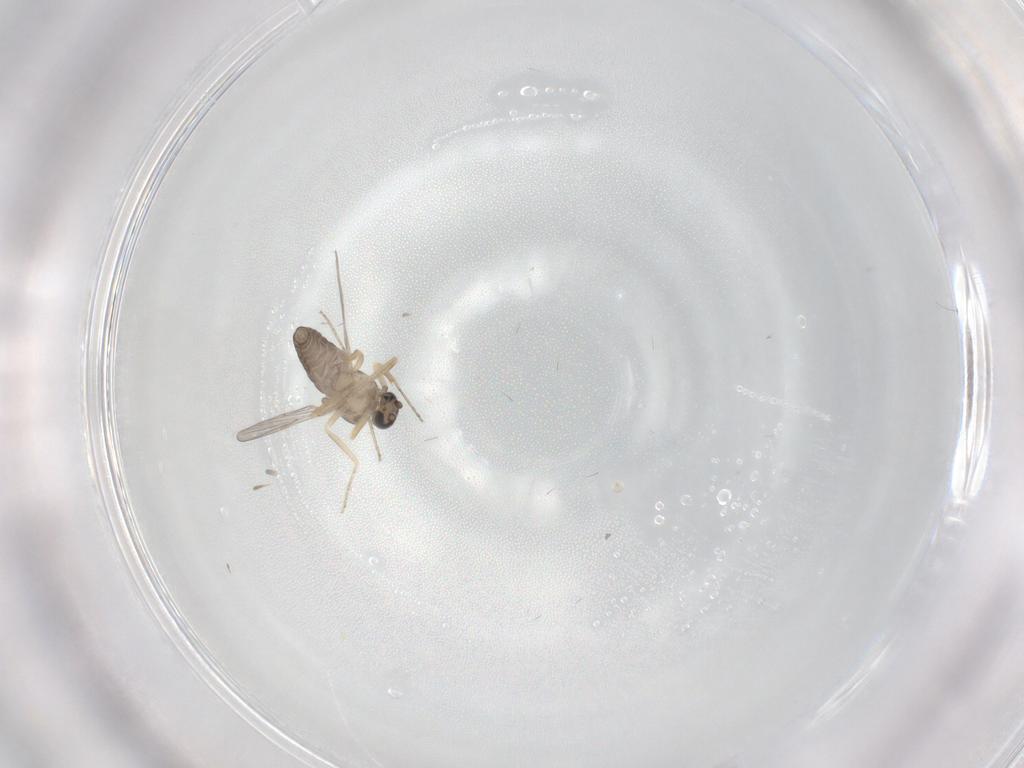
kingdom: Animalia
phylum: Arthropoda
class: Insecta
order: Diptera
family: Ceratopogonidae
